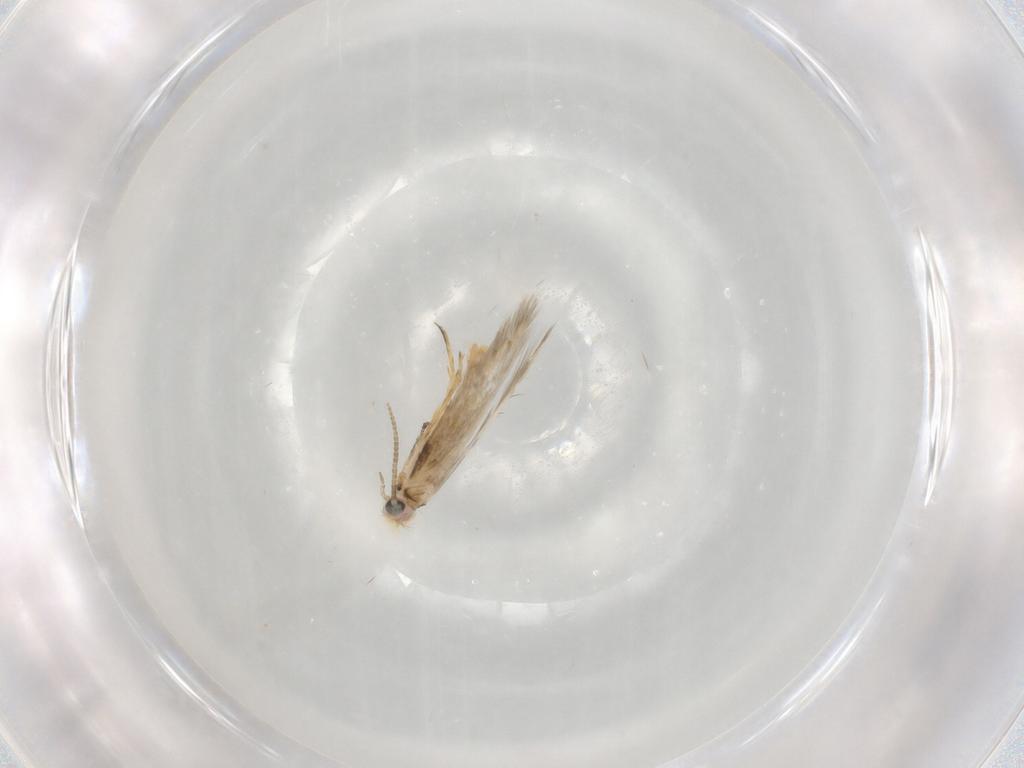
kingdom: Animalia
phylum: Arthropoda
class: Insecta
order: Lepidoptera
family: Nepticulidae
